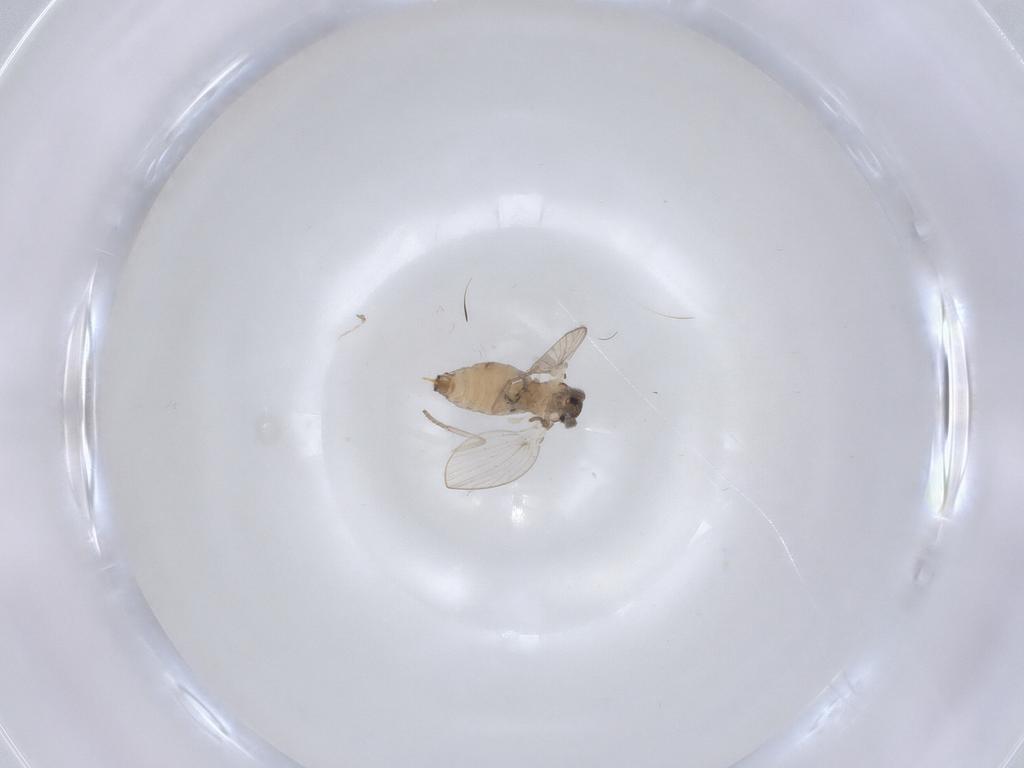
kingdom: Animalia
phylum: Arthropoda
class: Insecta
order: Diptera
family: Psychodidae
